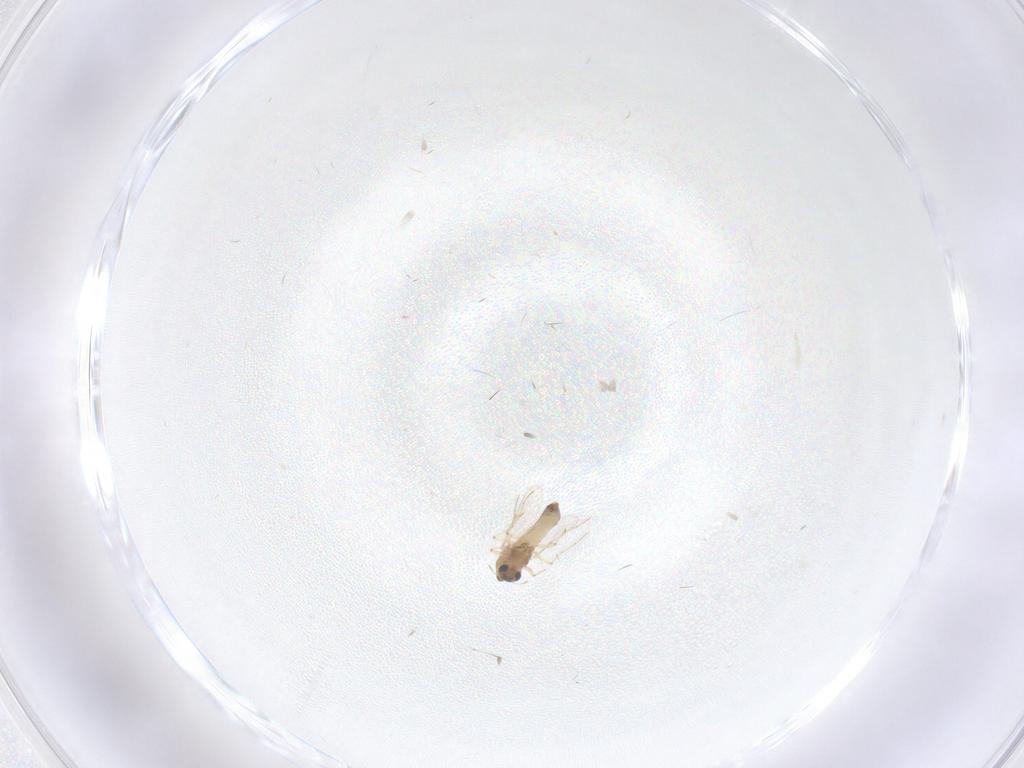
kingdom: Animalia
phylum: Arthropoda
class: Insecta
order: Diptera
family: Chironomidae
